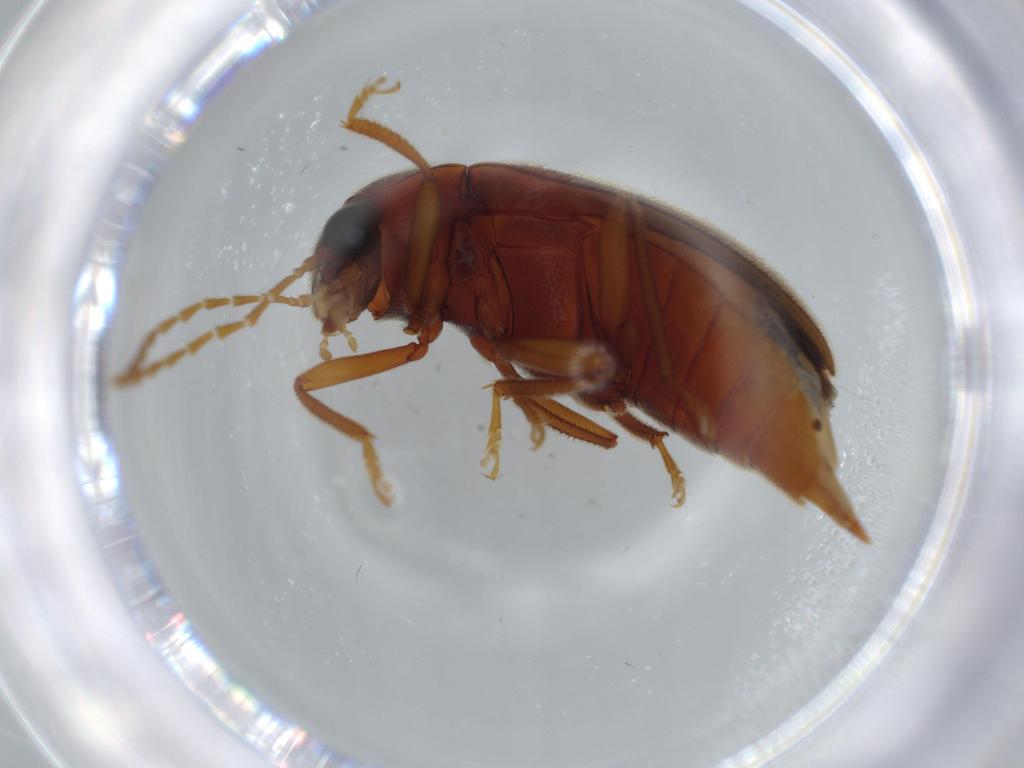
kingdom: Animalia
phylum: Arthropoda
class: Insecta
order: Coleoptera
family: Ptilodactylidae
